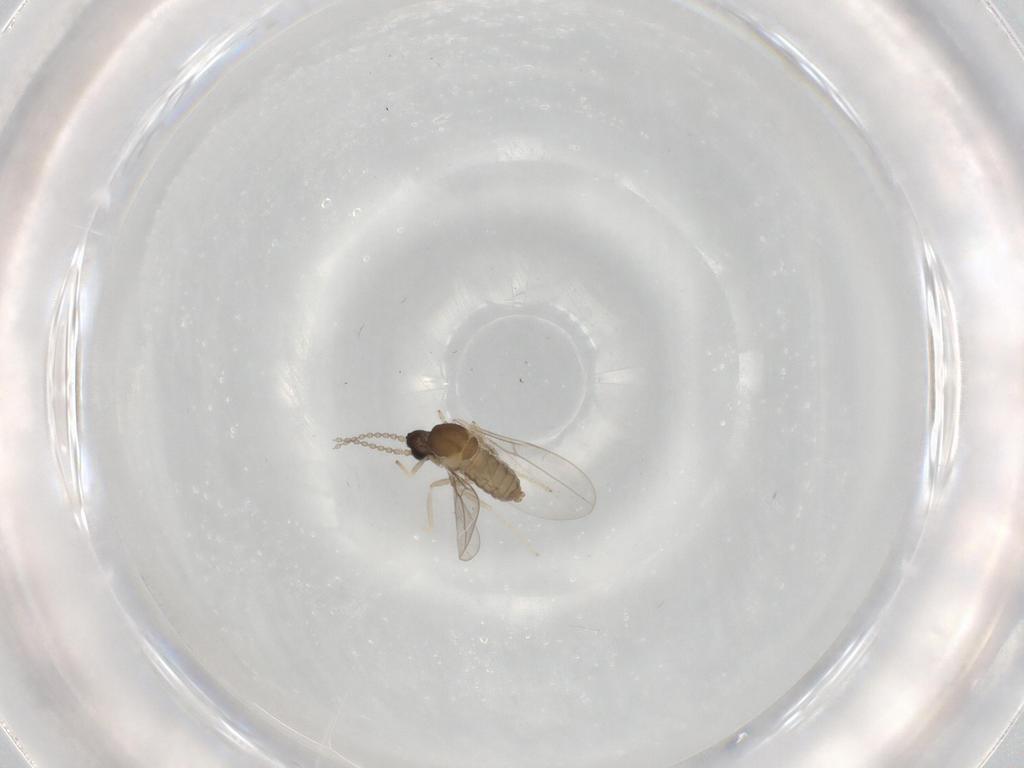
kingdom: Animalia
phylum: Arthropoda
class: Insecta
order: Diptera
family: Cecidomyiidae
